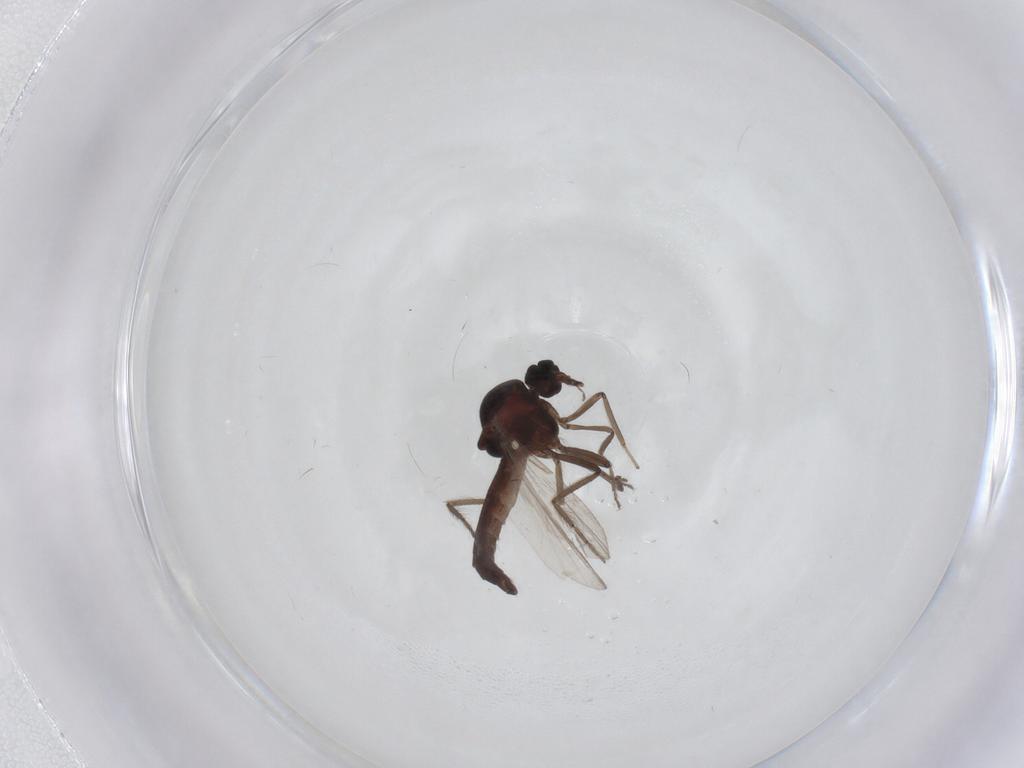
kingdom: Animalia
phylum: Arthropoda
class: Insecta
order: Diptera
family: Ceratopogonidae
